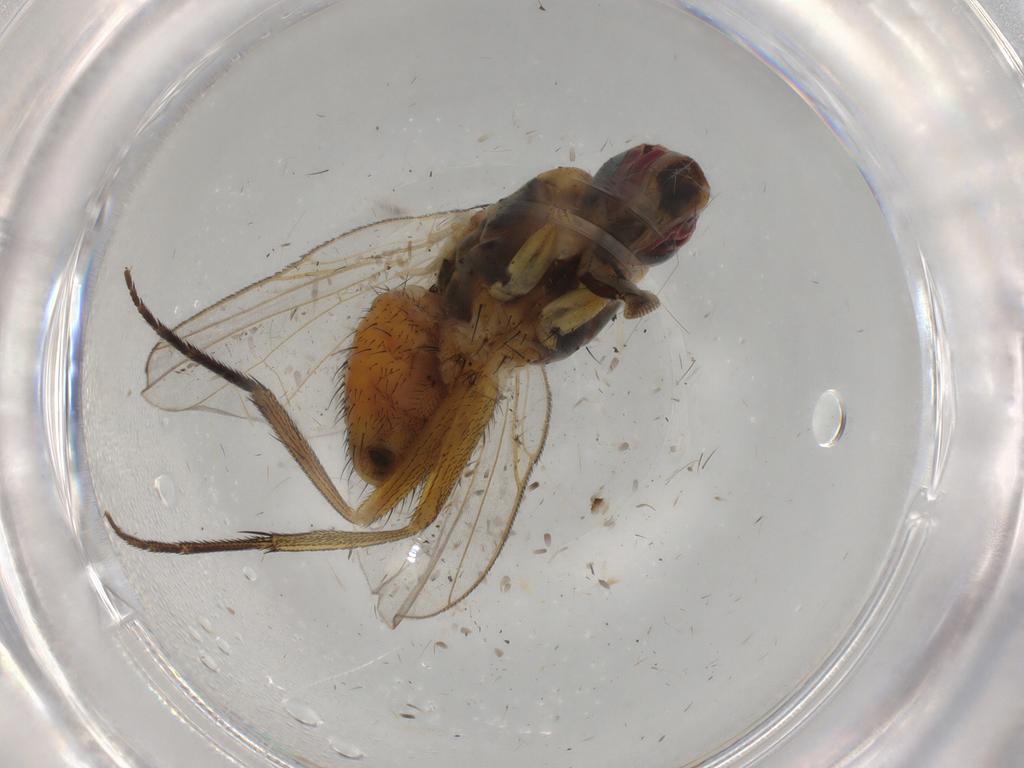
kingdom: Animalia
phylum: Arthropoda
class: Insecta
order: Diptera
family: Cecidomyiidae
